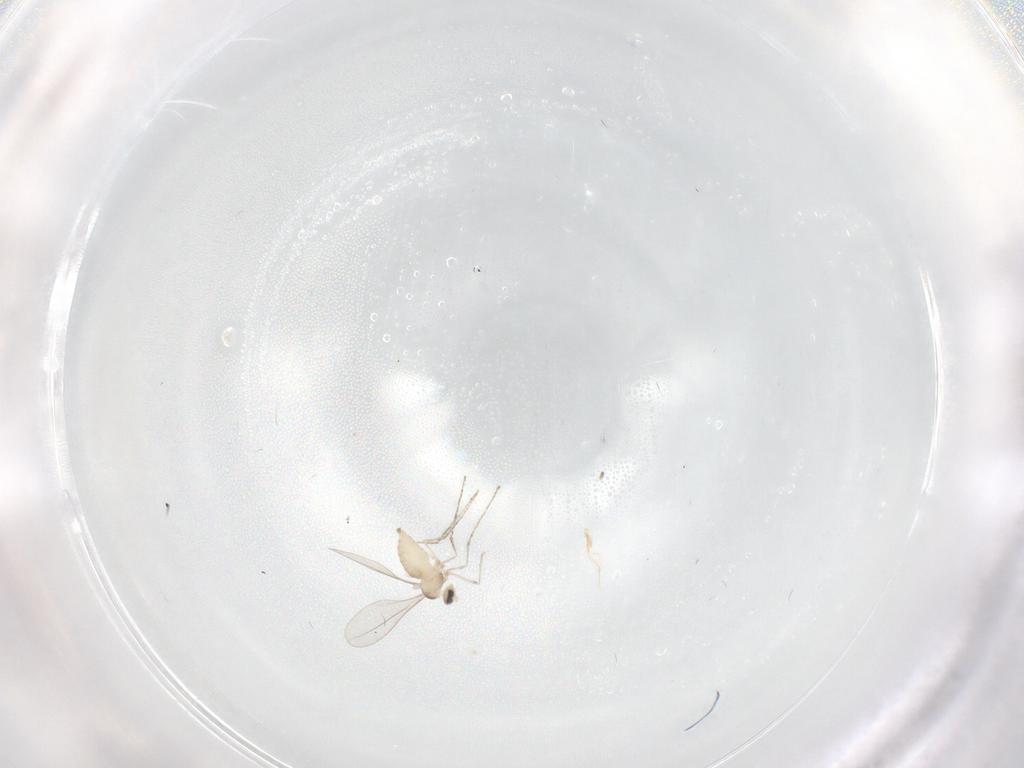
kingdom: Animalia
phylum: Arthropoda
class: Insecta
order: Diptera
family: Cecidomyiidae
